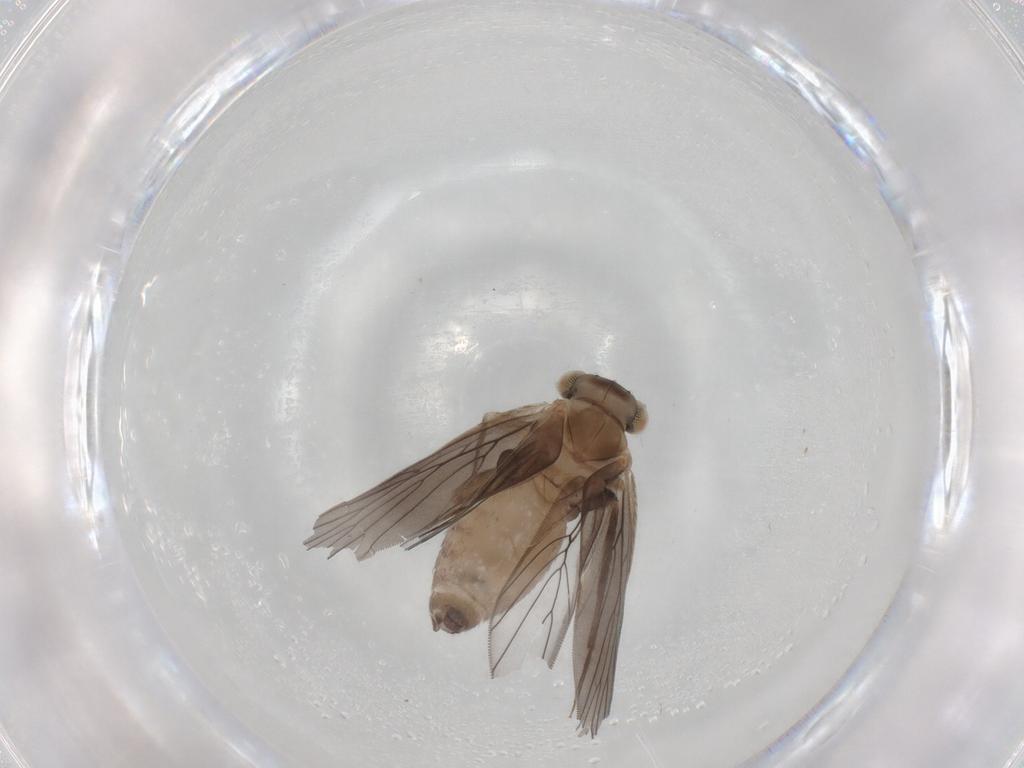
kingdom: Animalia
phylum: Arthropoda
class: Insecta
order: Psocodea
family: Lepidopsocidae
